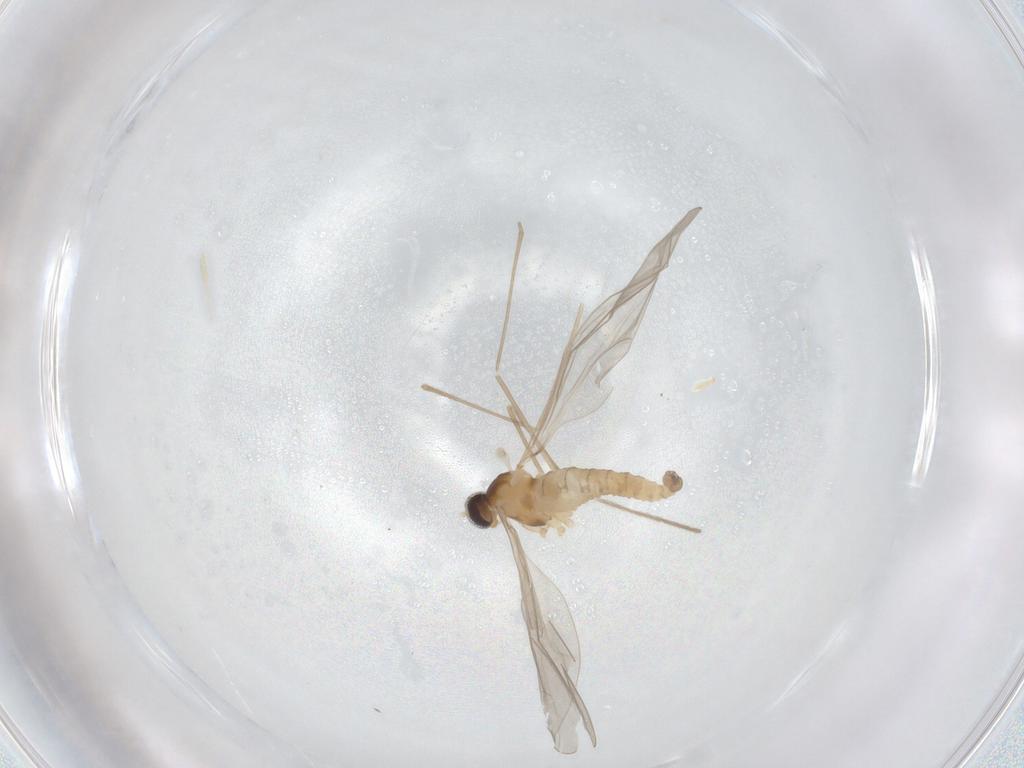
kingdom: Animalia
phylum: Arthropoda
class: Insecta
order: Diptera
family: Cecidomyiidae
